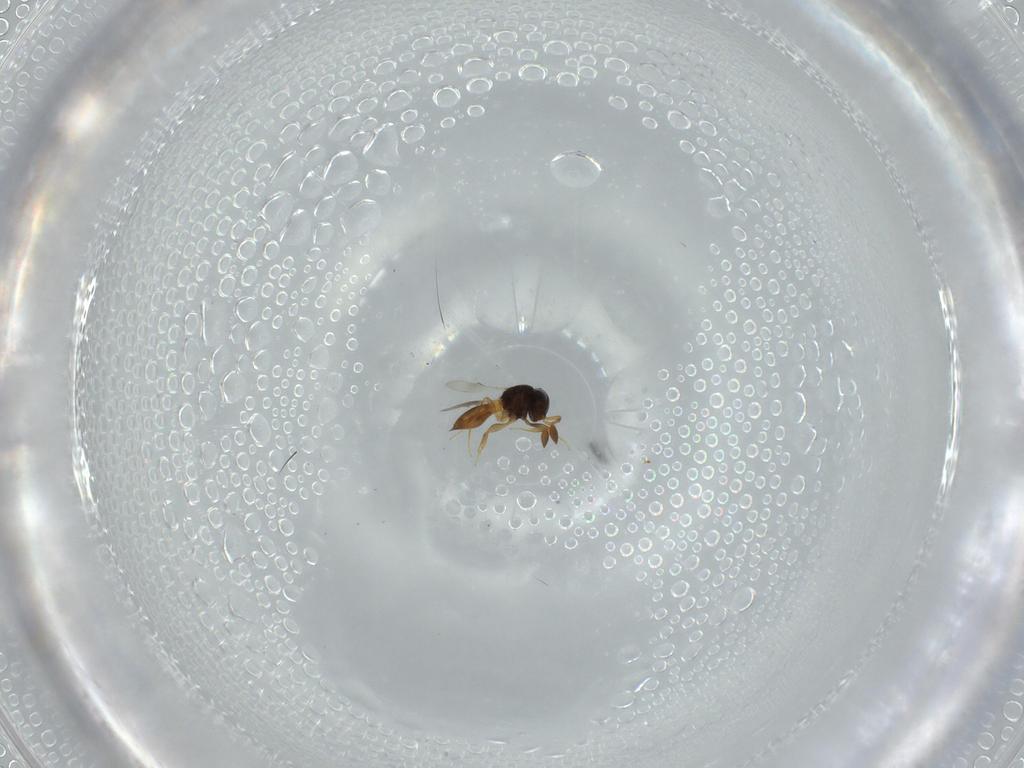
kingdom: Animalia
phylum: Arthropoda
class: Insecta
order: Hymenoptera
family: Scelionidae
